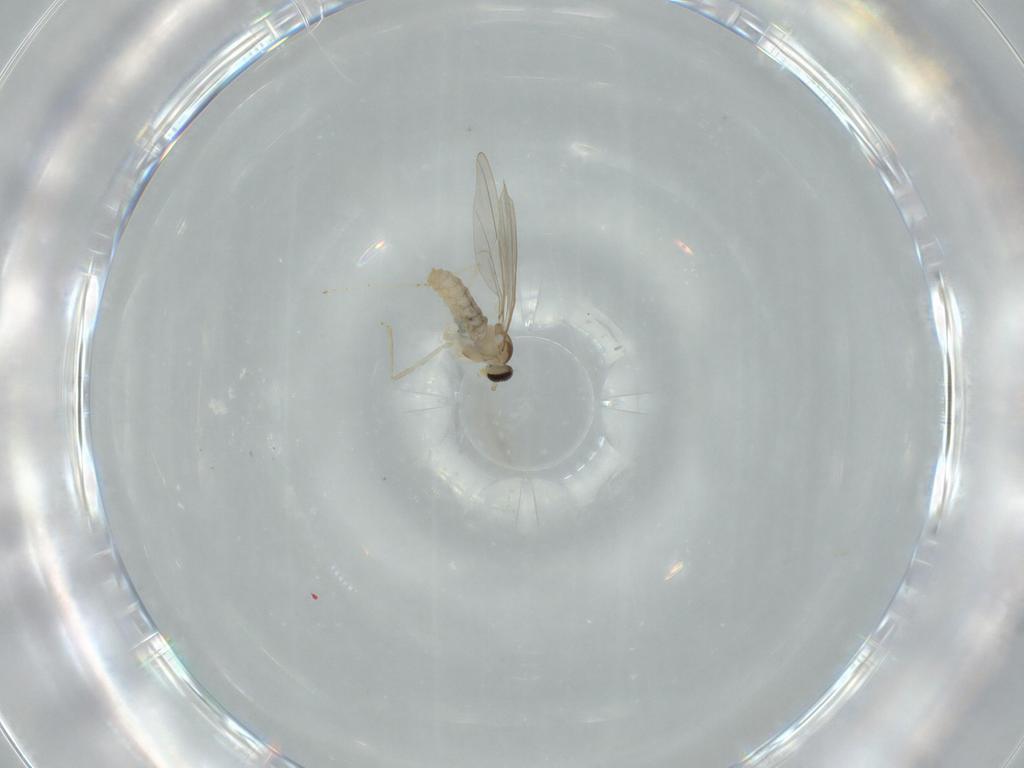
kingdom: Animalia
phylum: Arthropoda
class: Insecta
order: Diptera
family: Cecidomyiidae
